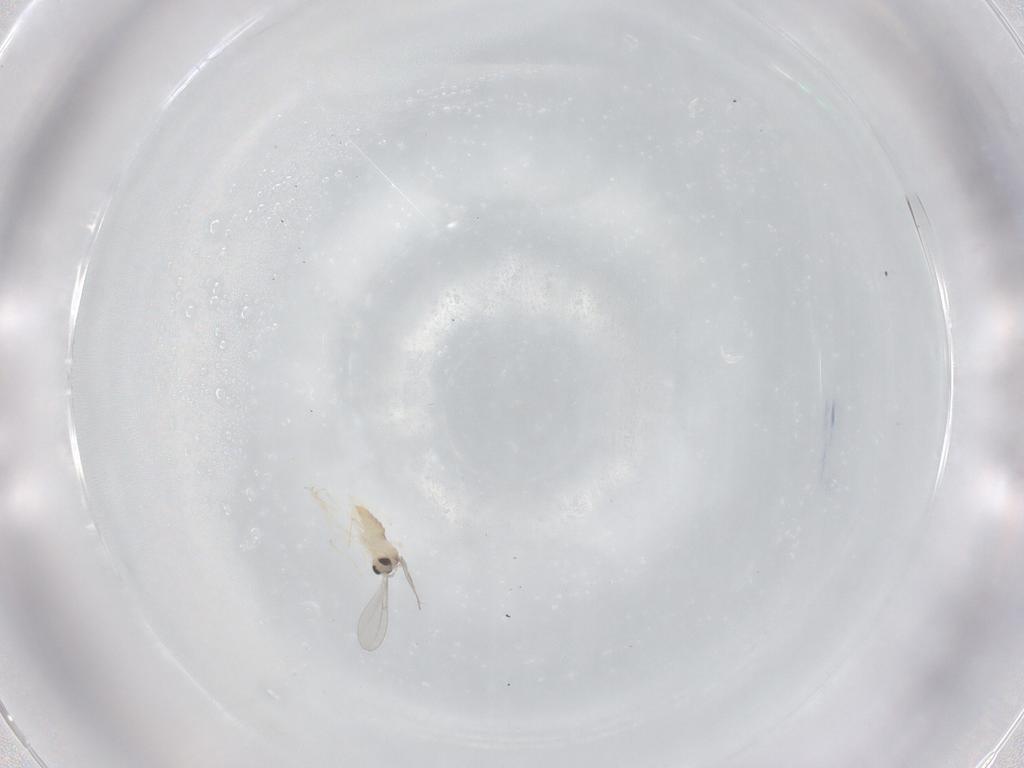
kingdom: Animalia
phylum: Arthropoda
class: Insecta
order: Diptera
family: Cecidomyiidae
